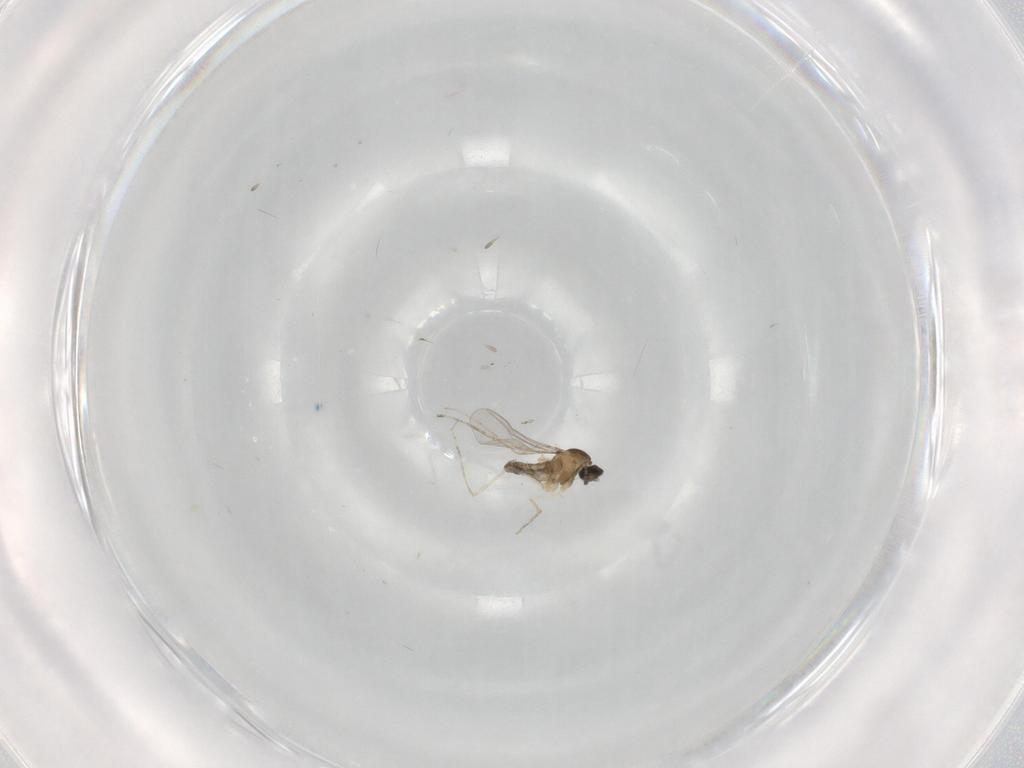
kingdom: Animalia
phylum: Arthropoda
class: Insecta
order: Diptera
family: Cecidomyiidae
